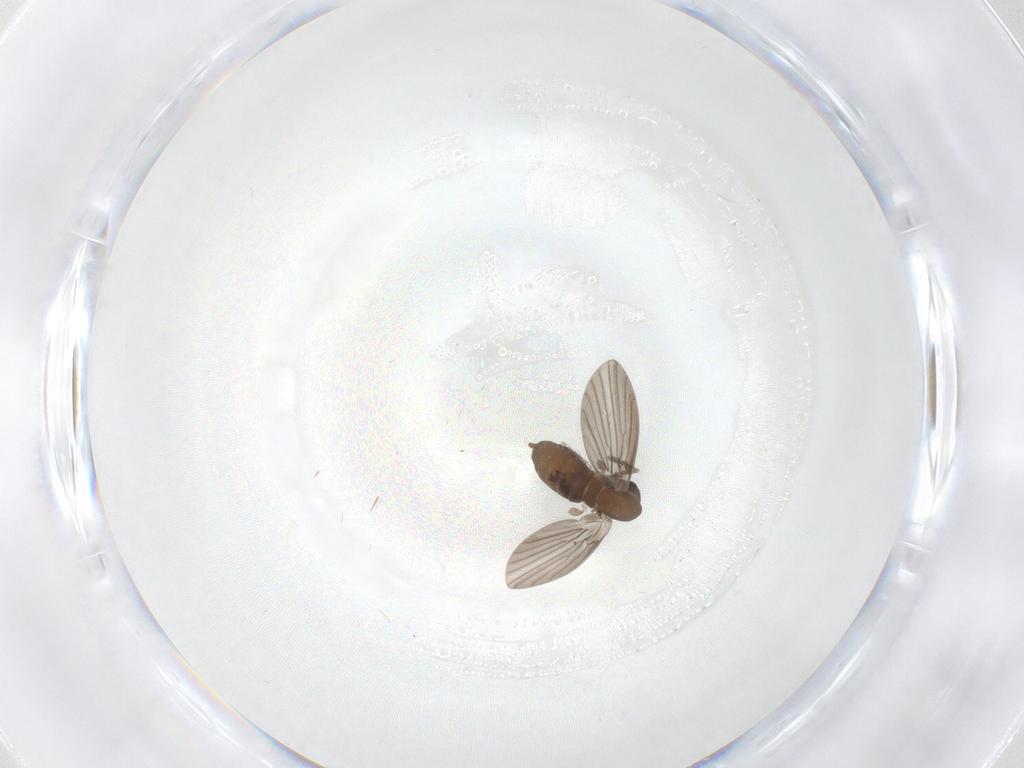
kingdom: Animalia
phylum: Arthropoda
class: Insecta
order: Diptera
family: Psychodidae
